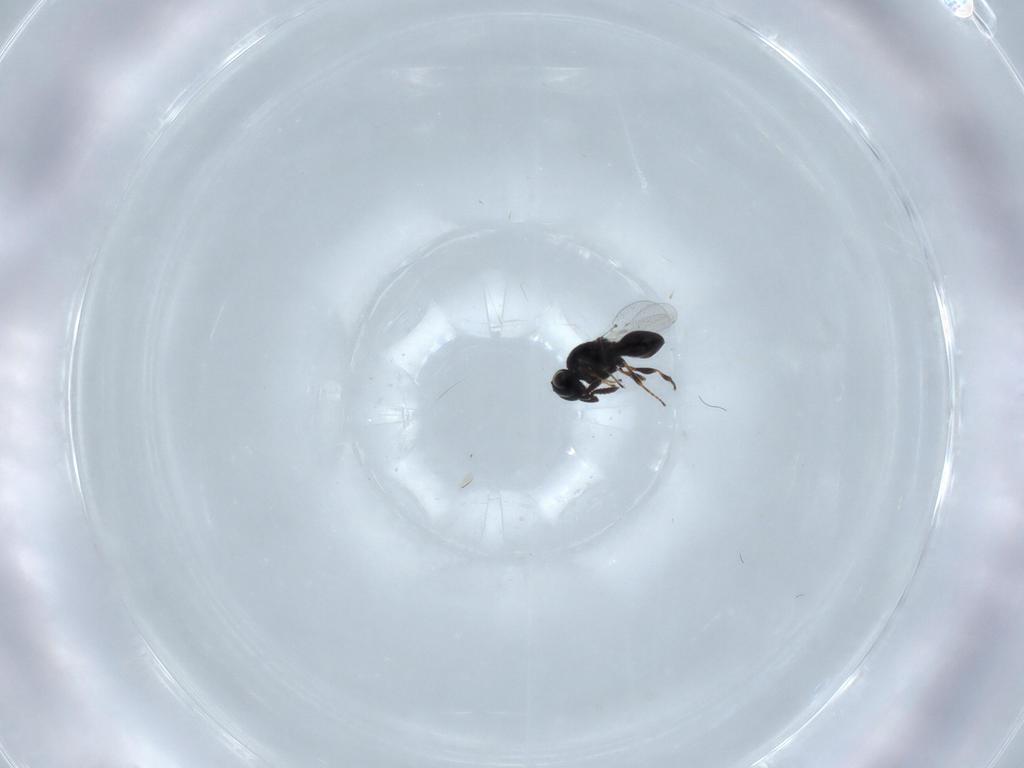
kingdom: Animalia
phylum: Arthropoda
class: Insecta
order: Hymenoptera
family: Platygastridae
